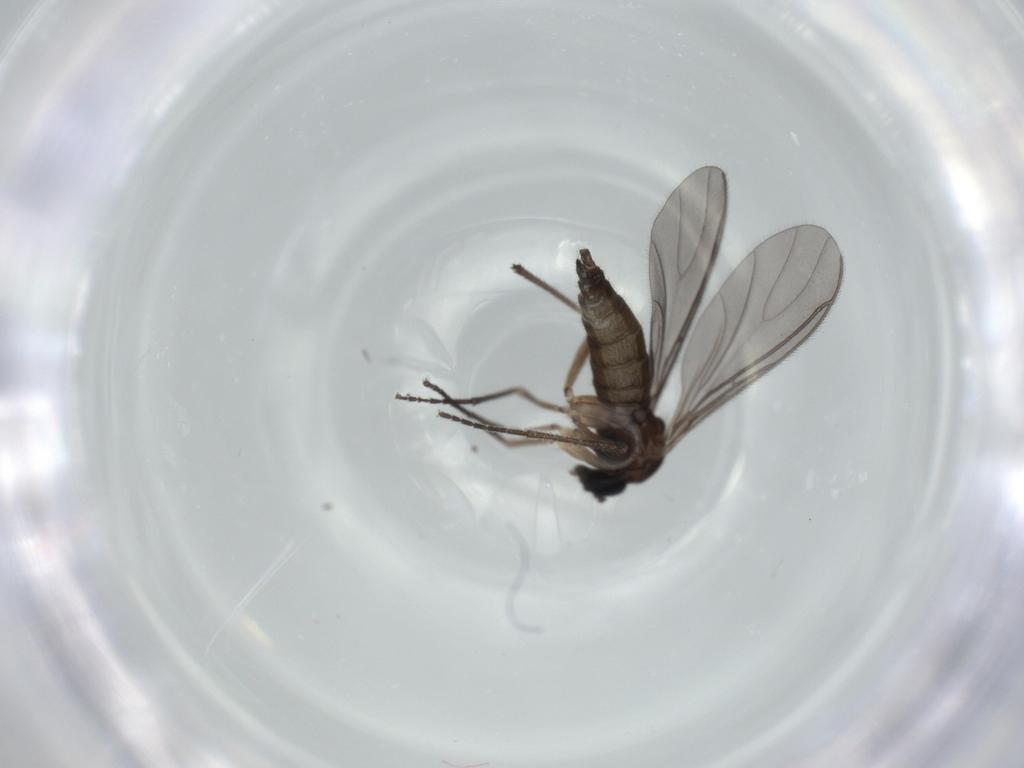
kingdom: Animalia
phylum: Arthropoda
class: Insecta
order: Diptera
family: Sciaridae
